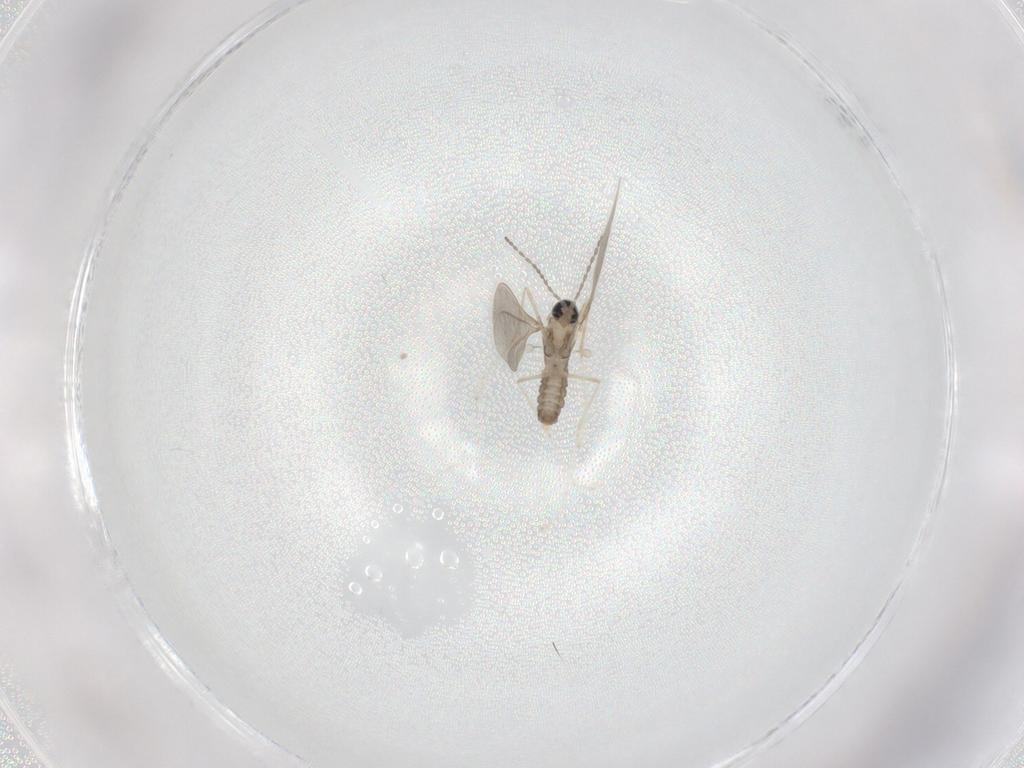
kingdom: Animalia
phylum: Arthropoda
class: Insecta
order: Diptera
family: Cecidomyiidae
